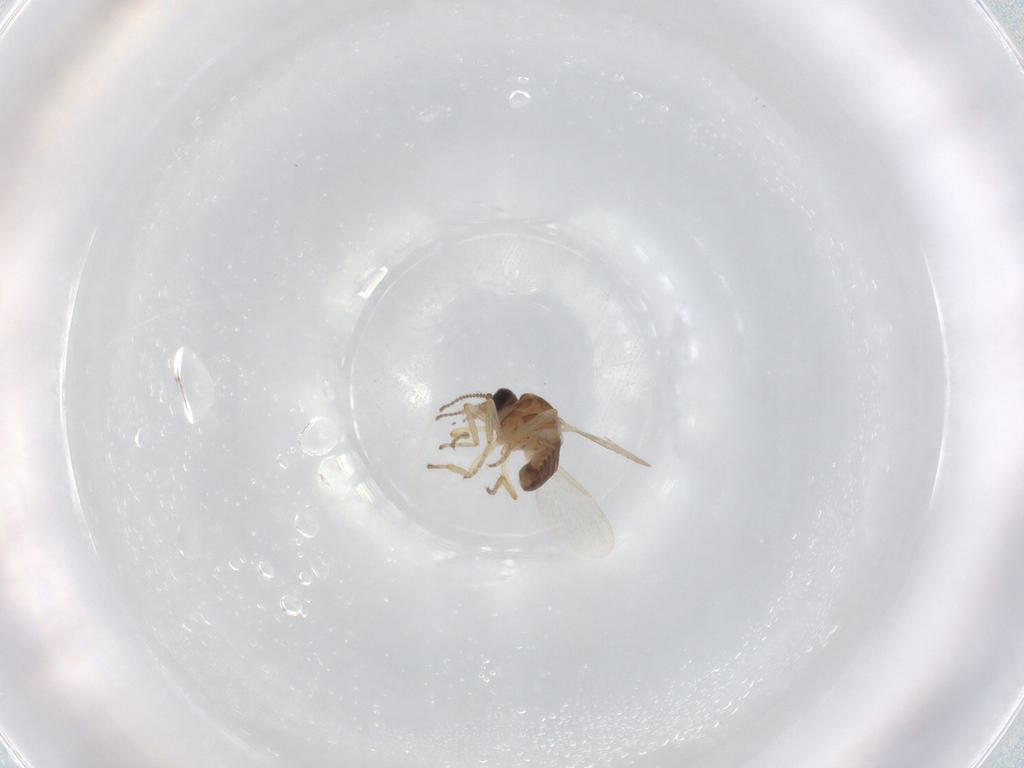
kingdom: Animalia
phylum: Arthropoda
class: Insecta
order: Diptera
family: Ceratopogonidae
